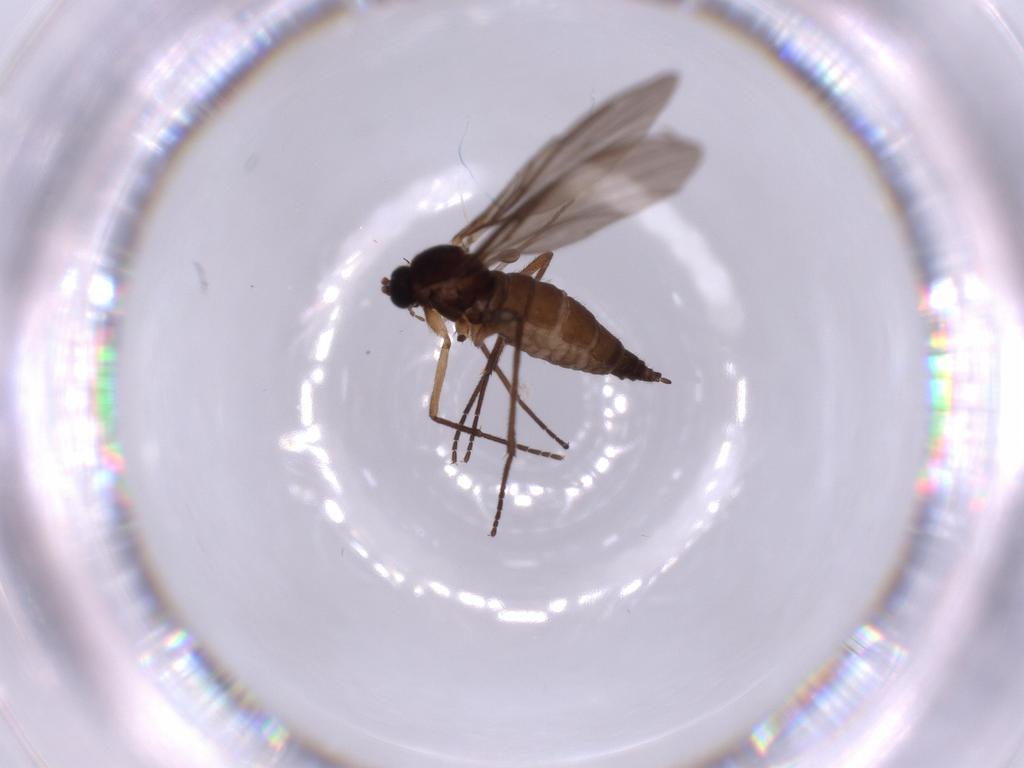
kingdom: Animalia
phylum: Arthropoda
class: Insecta
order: Diptera
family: Sciaridae
